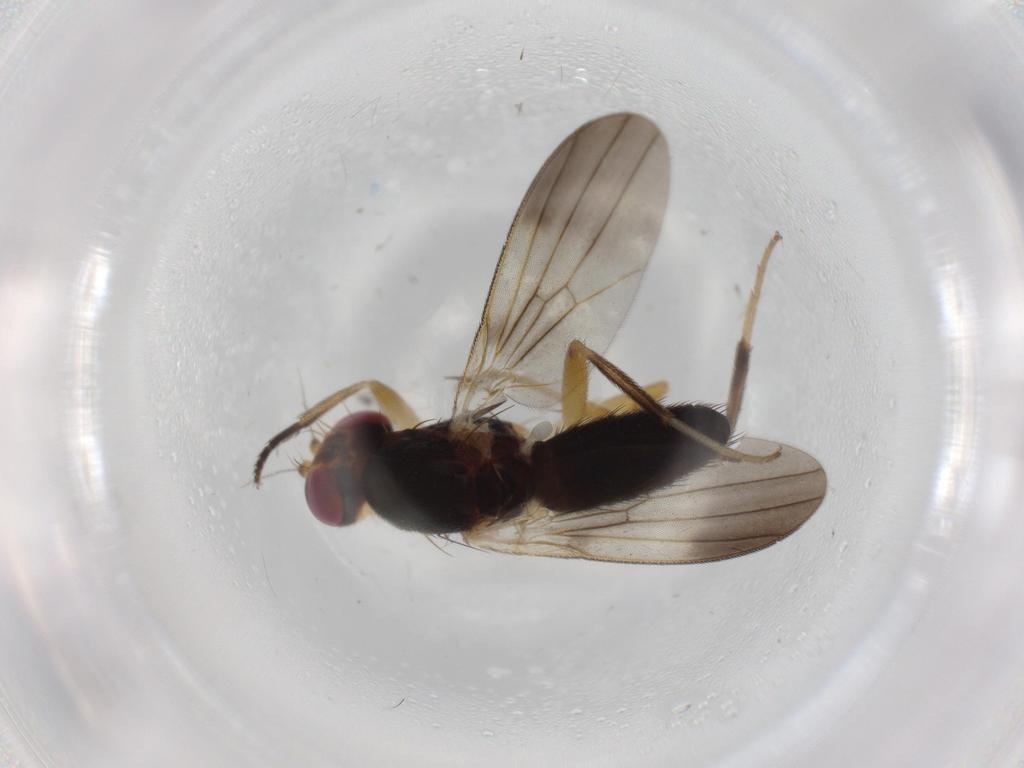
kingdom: Animalia
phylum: Arthropoda
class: Insecta
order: Diptera
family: Clusiidae
